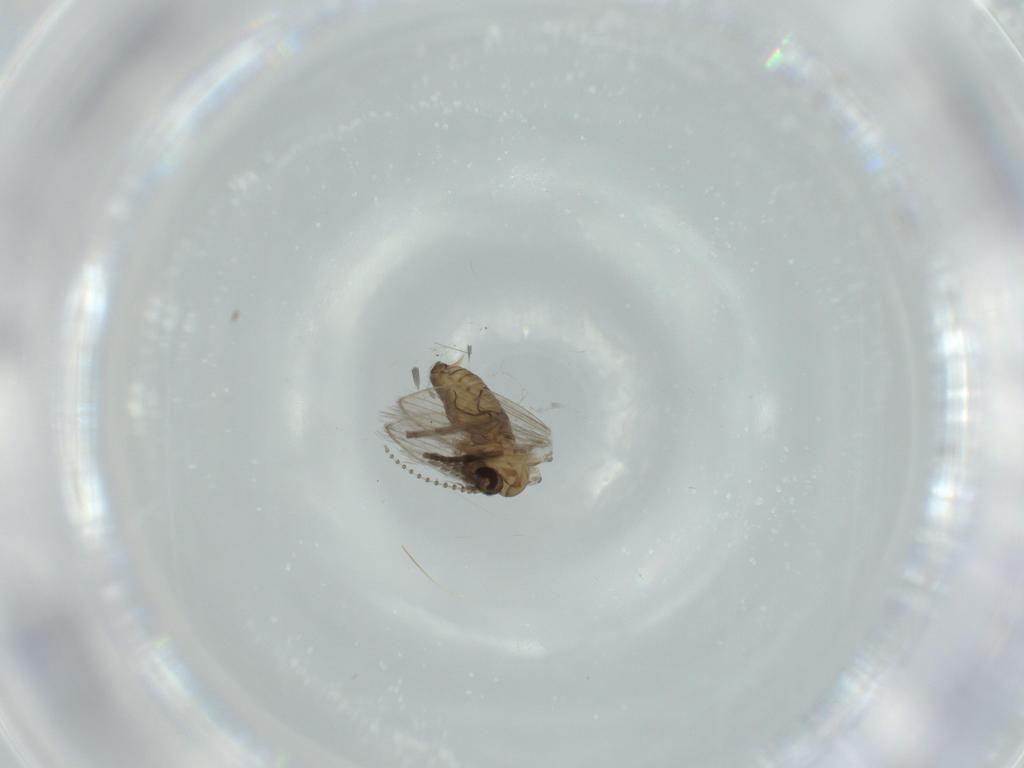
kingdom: Animalia
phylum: Arthropoda
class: Insecta
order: Diptera
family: Psychodidae
